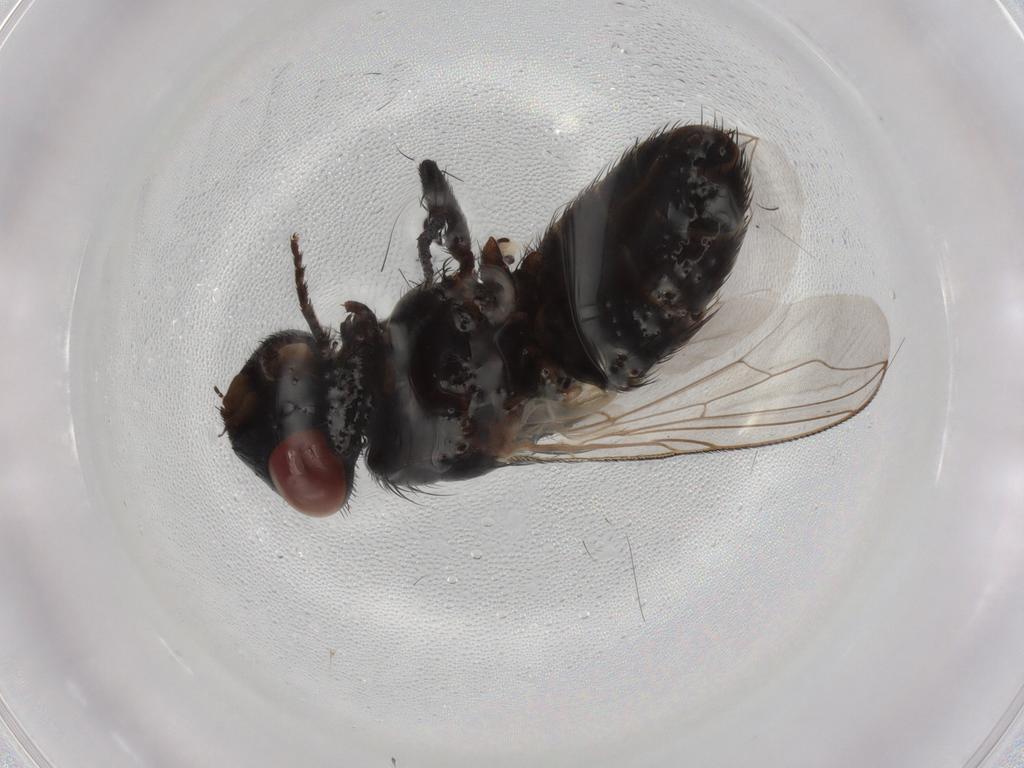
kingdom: Animalia
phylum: Arthropoda
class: Insecta
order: Diptera
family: Sarcophagidae
